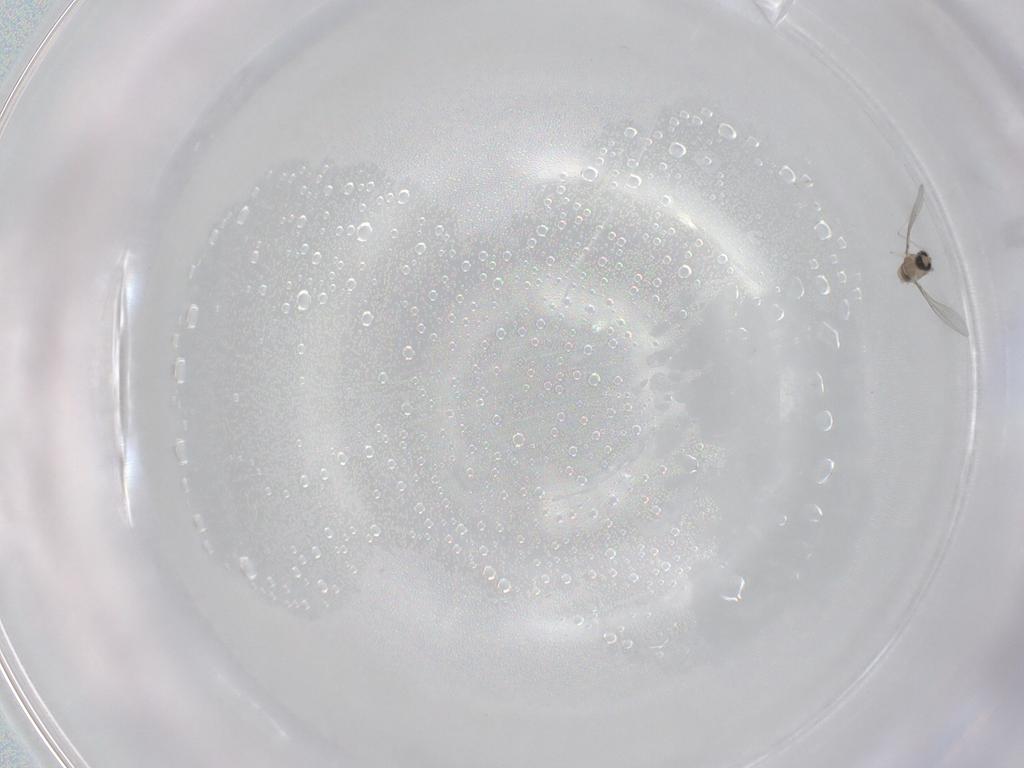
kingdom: Animalia
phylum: Arthropoda
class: Insecta
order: Diptera
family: Cecidomyiidae
